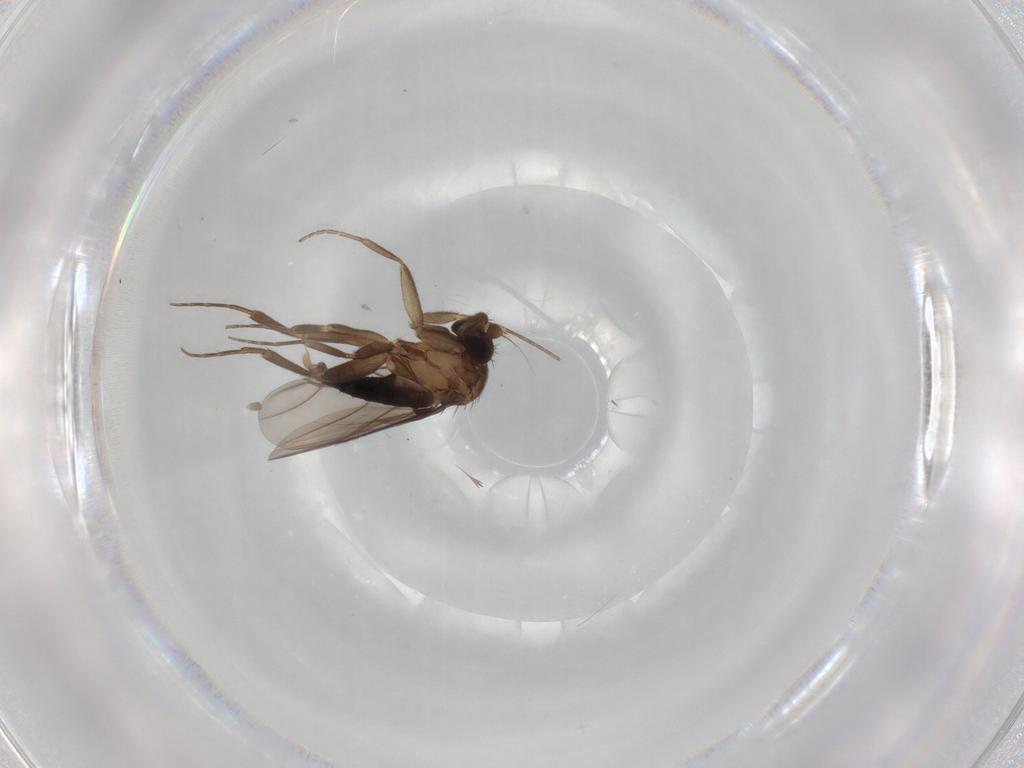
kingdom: Animalia
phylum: Arthropoda
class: Insecta
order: Diptera
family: Phoridae
